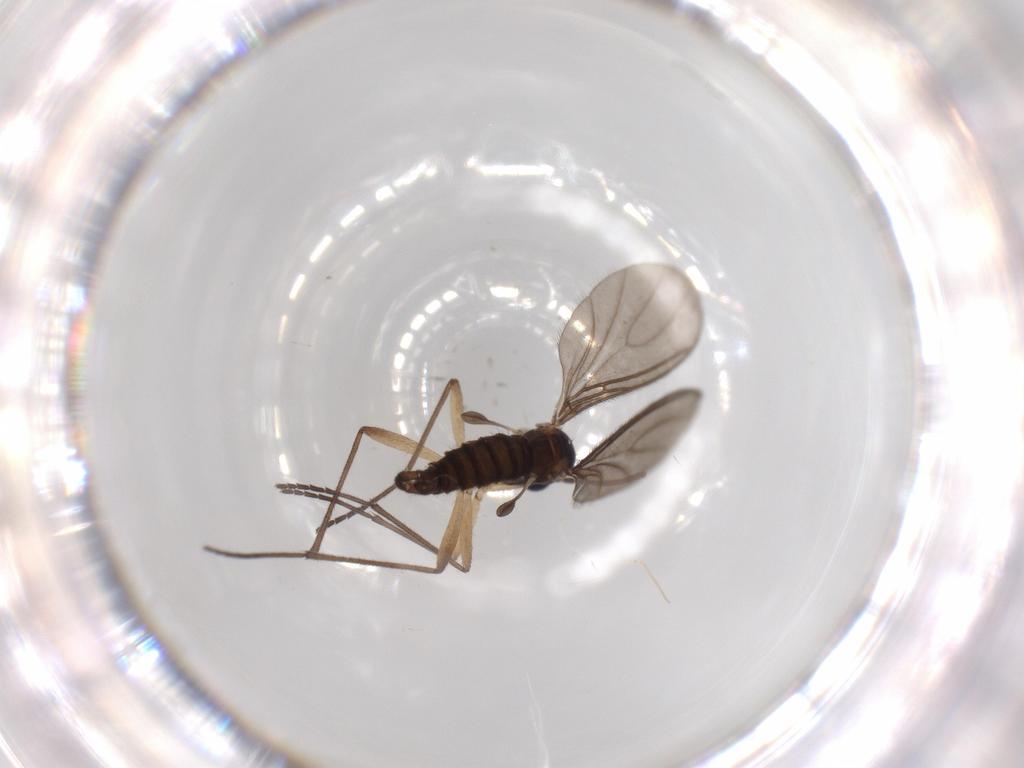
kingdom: Animalia
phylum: Arthropoda
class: Insecta
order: Diptera
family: Sciaridae
